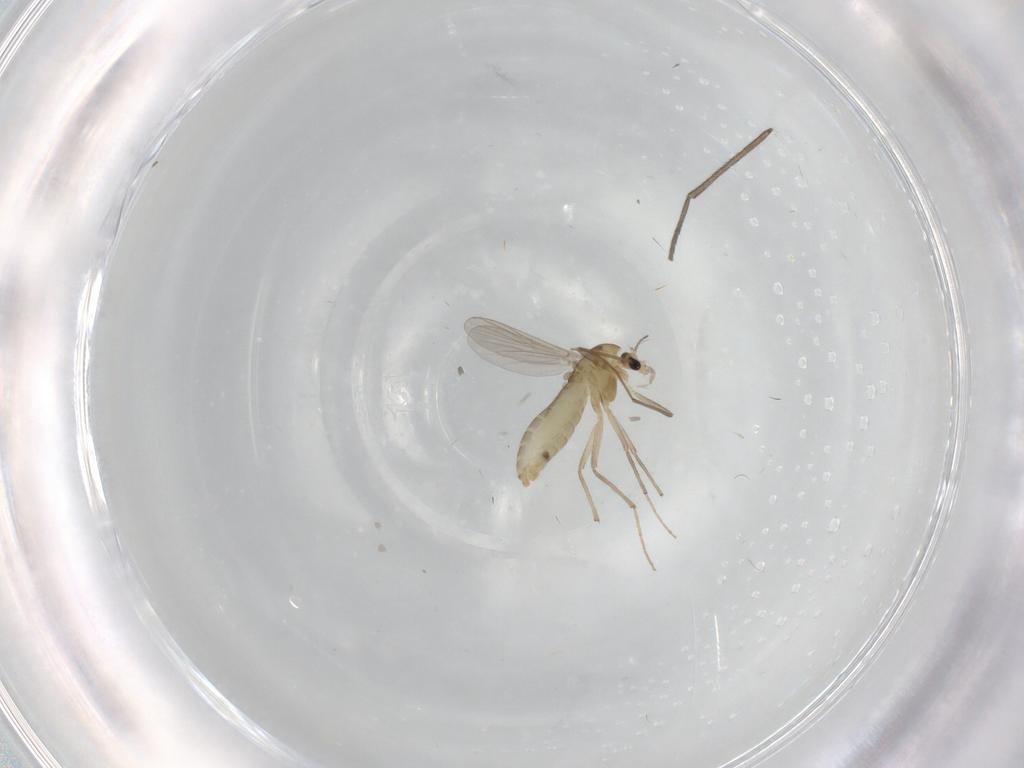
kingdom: Animalia
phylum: Arthropoda
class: Insecta
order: Diptera
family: Chironomidae
